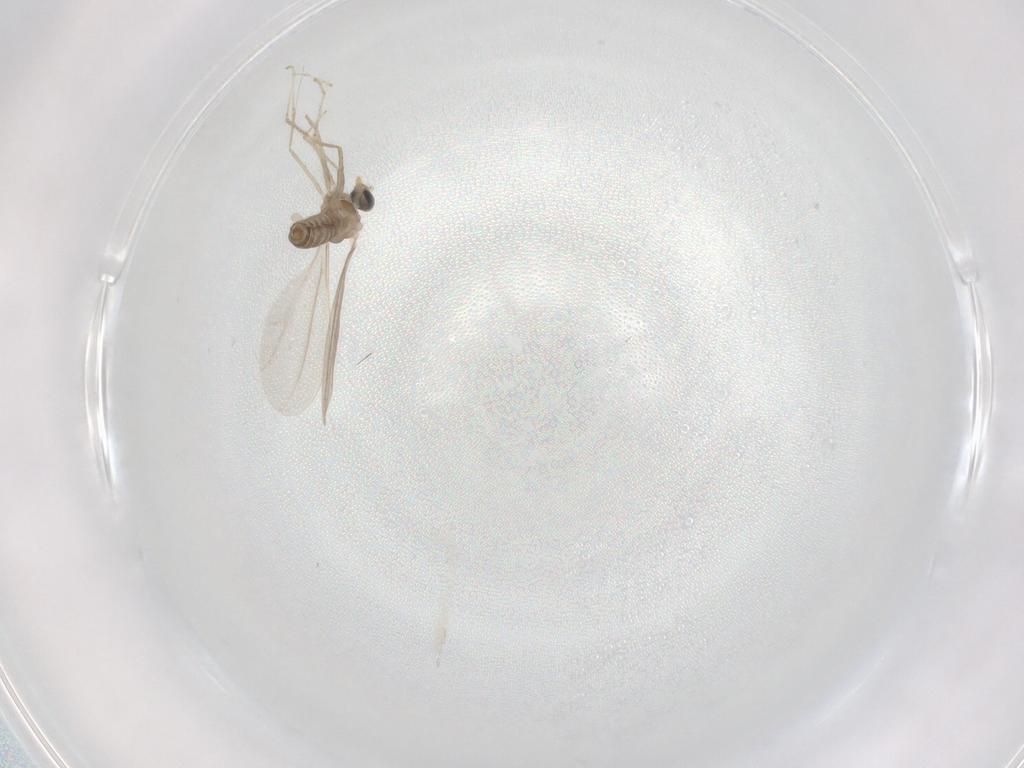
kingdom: Animalia
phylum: Arthropoda
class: Insecta
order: Diptera
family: Cecidomyiidae
